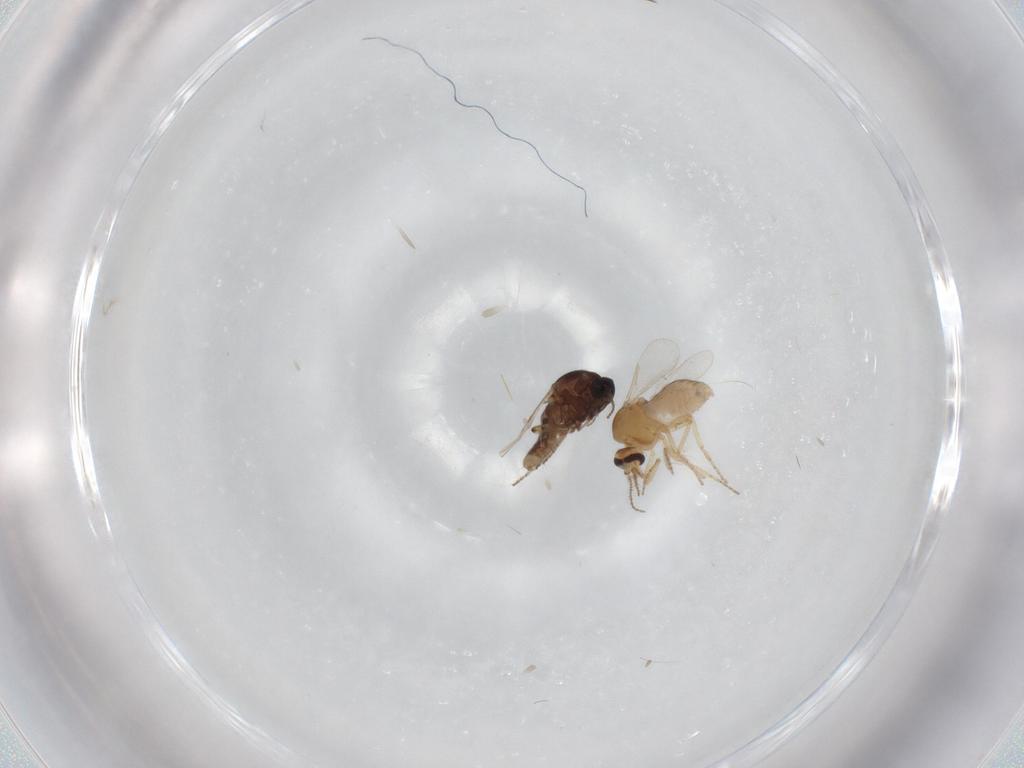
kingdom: Animalia
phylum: Arthropoda
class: Insecta
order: Diptera
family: Ceratopogonidae
